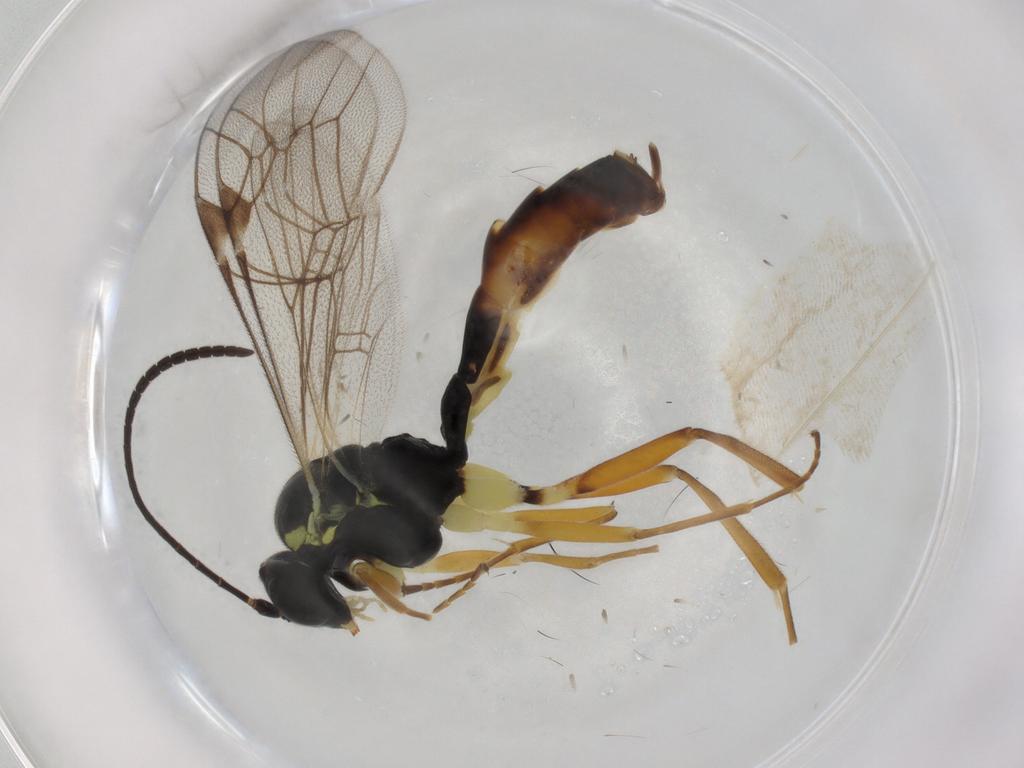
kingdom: Animalia
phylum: Arthropoda
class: Insecta
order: Hymenoptera
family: Ichneumonidae
